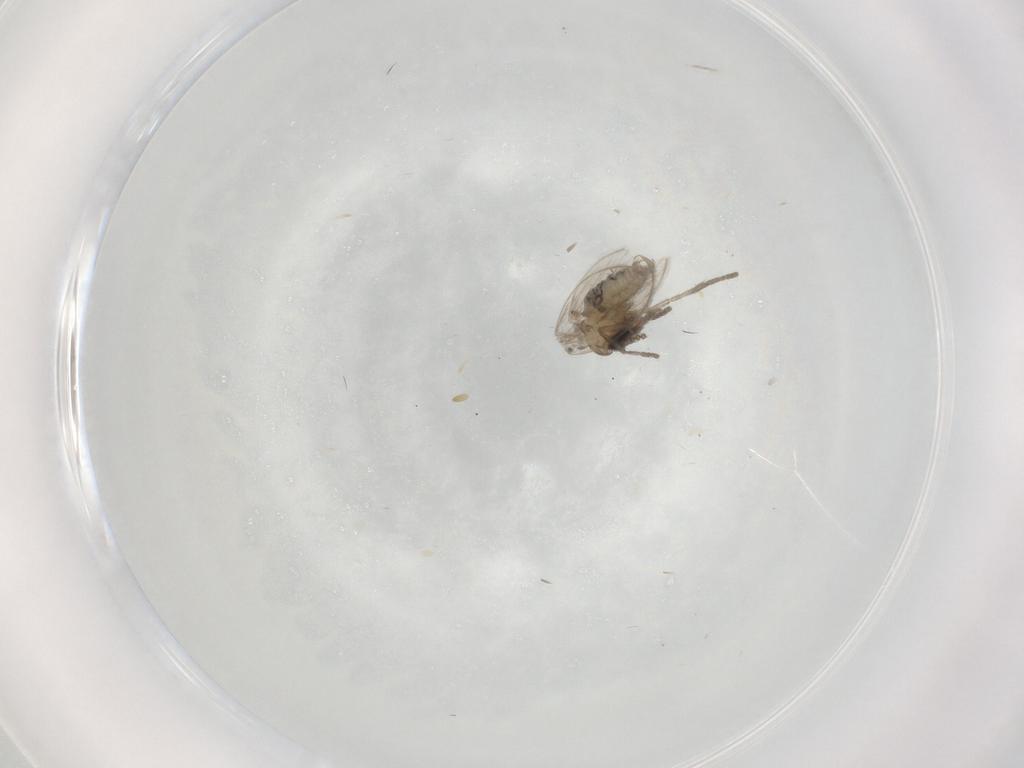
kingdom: Animalia
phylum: Arthropoda
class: Insecta
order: Diptera
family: Psychodidae
